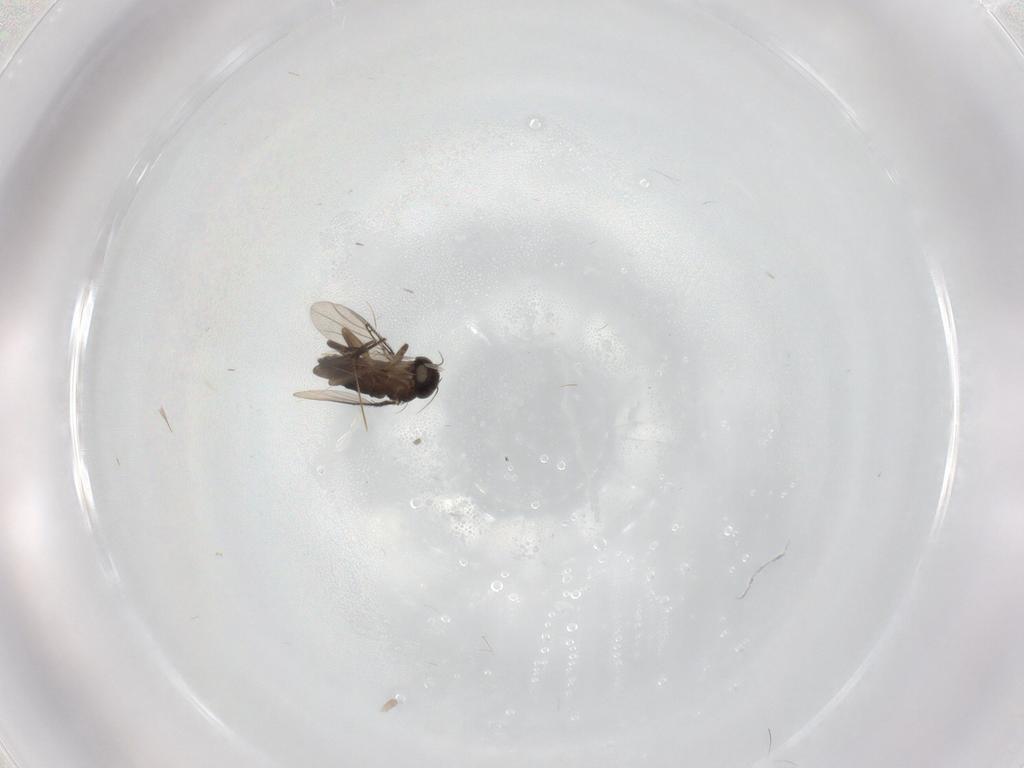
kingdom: Animalia
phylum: Arthropoda
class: Insecta
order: Diptera
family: Phoridae
